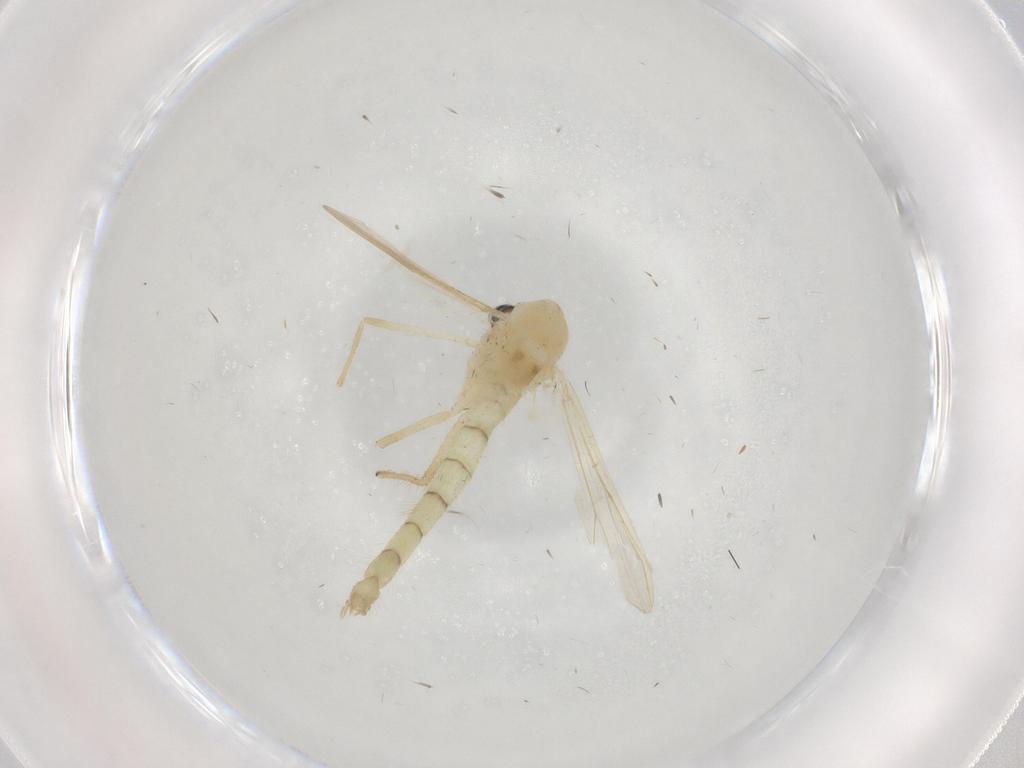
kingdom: Animalia
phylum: Arthropoda
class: Insecta
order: Diptera
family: Chironomidae
